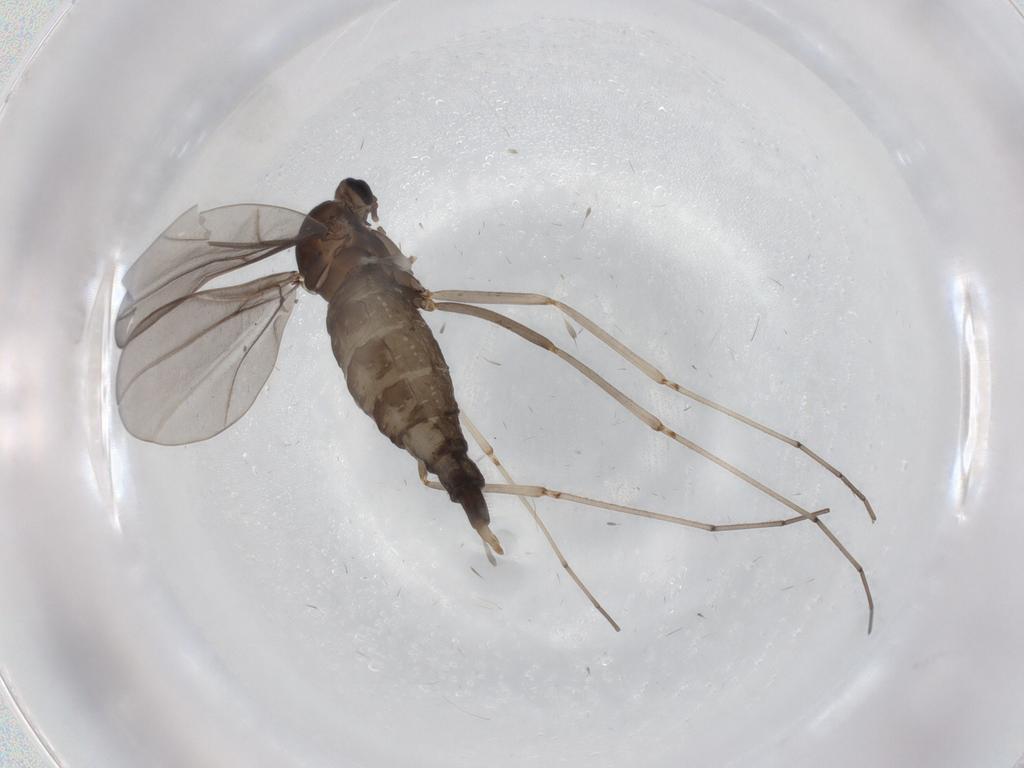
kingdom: Animalia
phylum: Arthropoda
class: Insecta
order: Diptera
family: Cecidomyiidae
